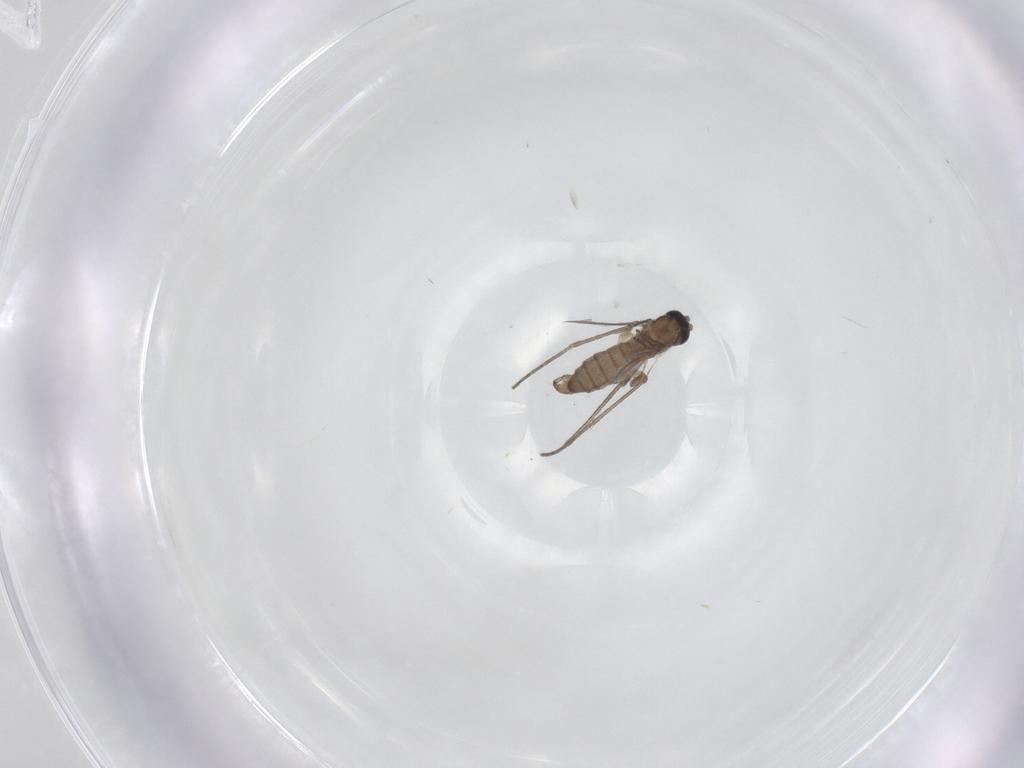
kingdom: Animalia
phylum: Arthropoda
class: Insecta
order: Diptera
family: Sciaridae
